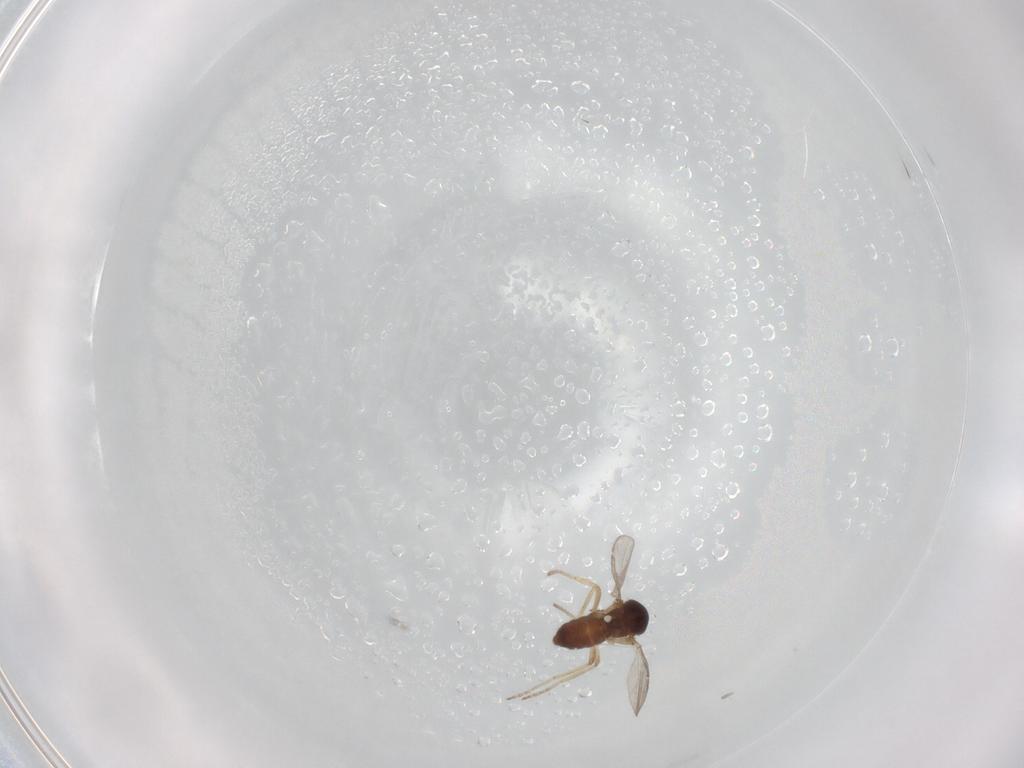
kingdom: Animalia
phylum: Arthropoda
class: Insecta
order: Diptera
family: Ceratopogonidae
